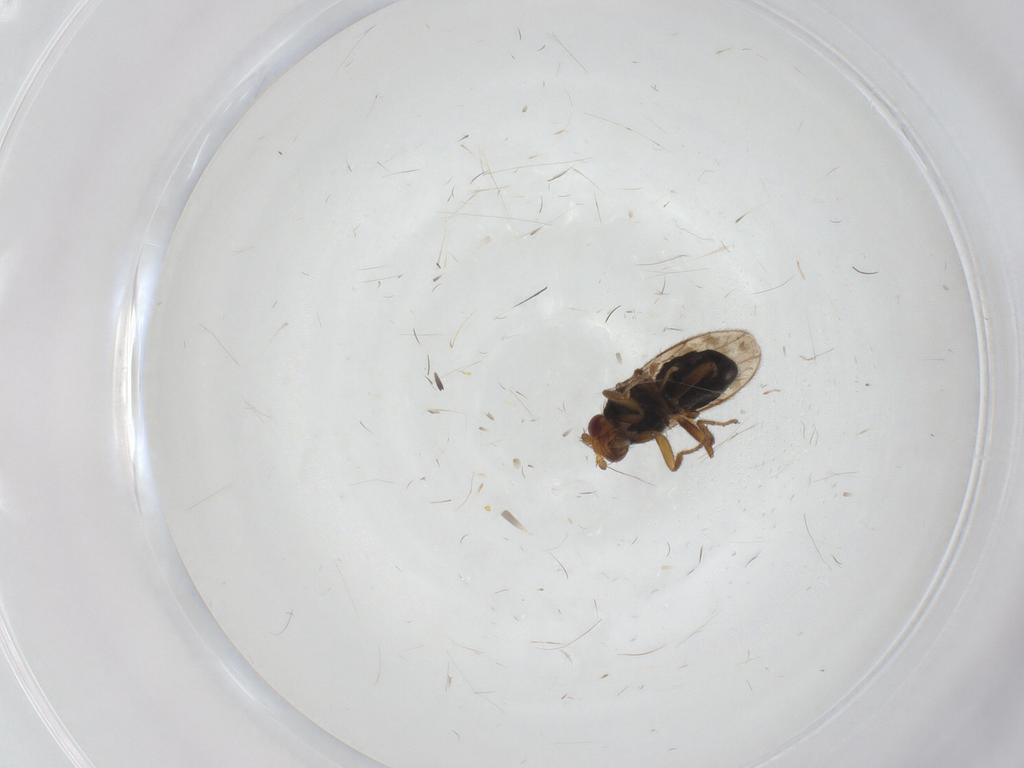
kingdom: Animalia
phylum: Arthropoda
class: Insecta
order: Diptera
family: Sphaeroceridae
